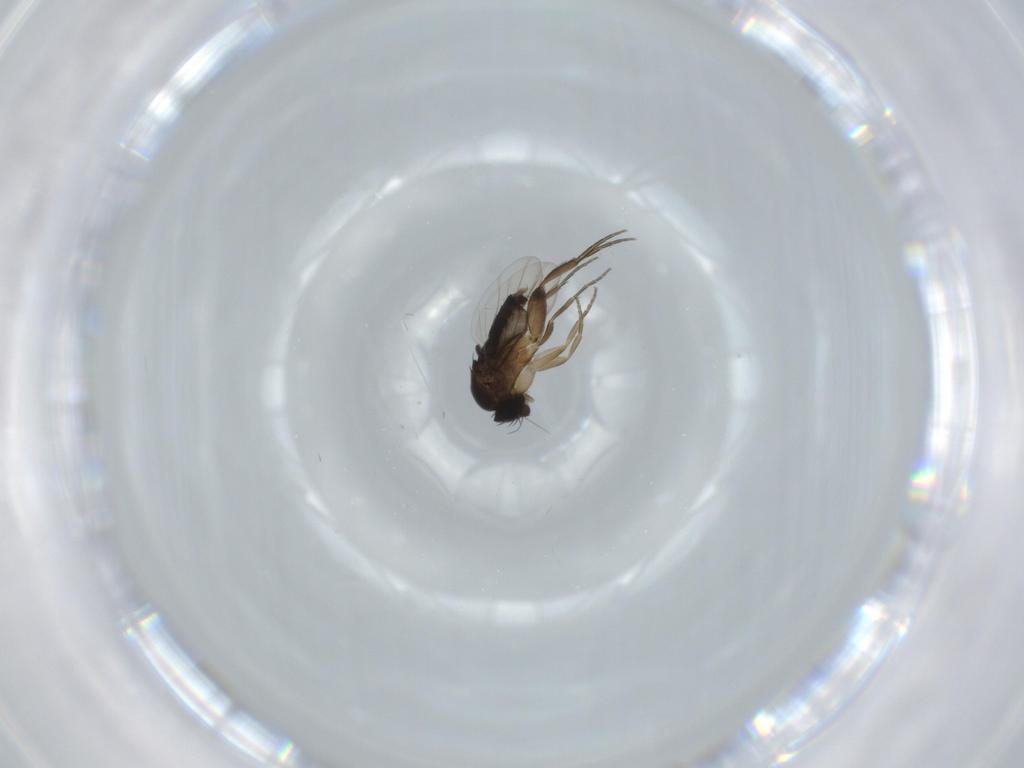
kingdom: Animalia
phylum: Arthropoda
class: Insecta
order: Diptera
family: Phoridae
